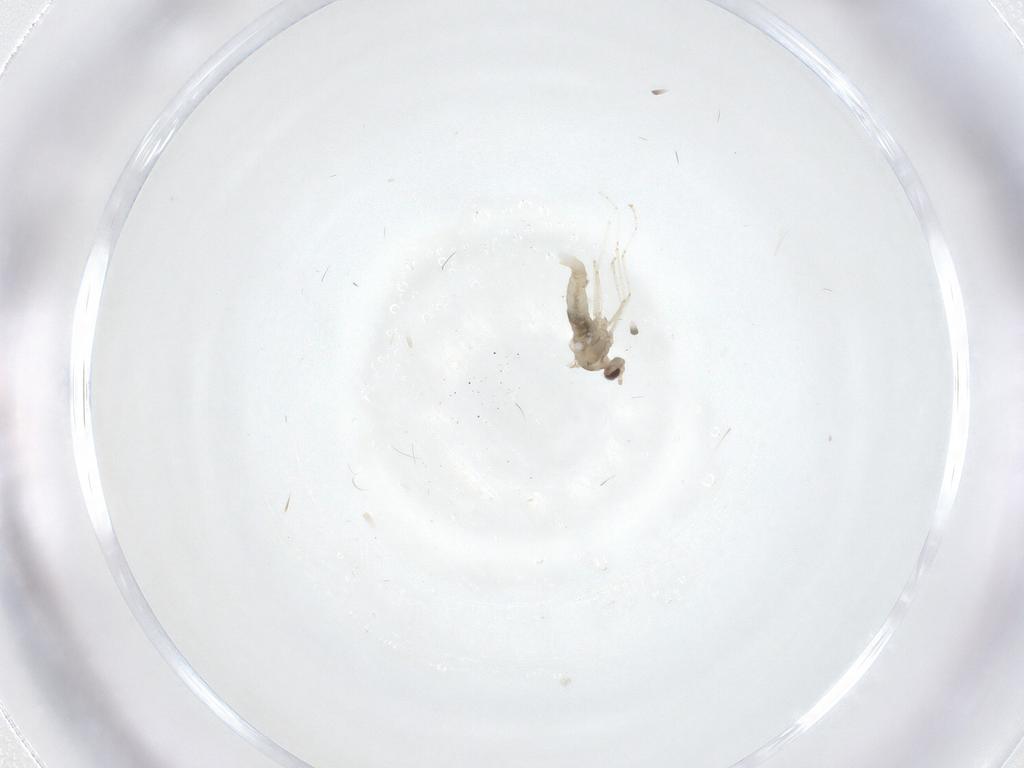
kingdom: Animalia
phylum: Arthropoda
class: Insecta
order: Diptera
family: Cecidomyiidae
